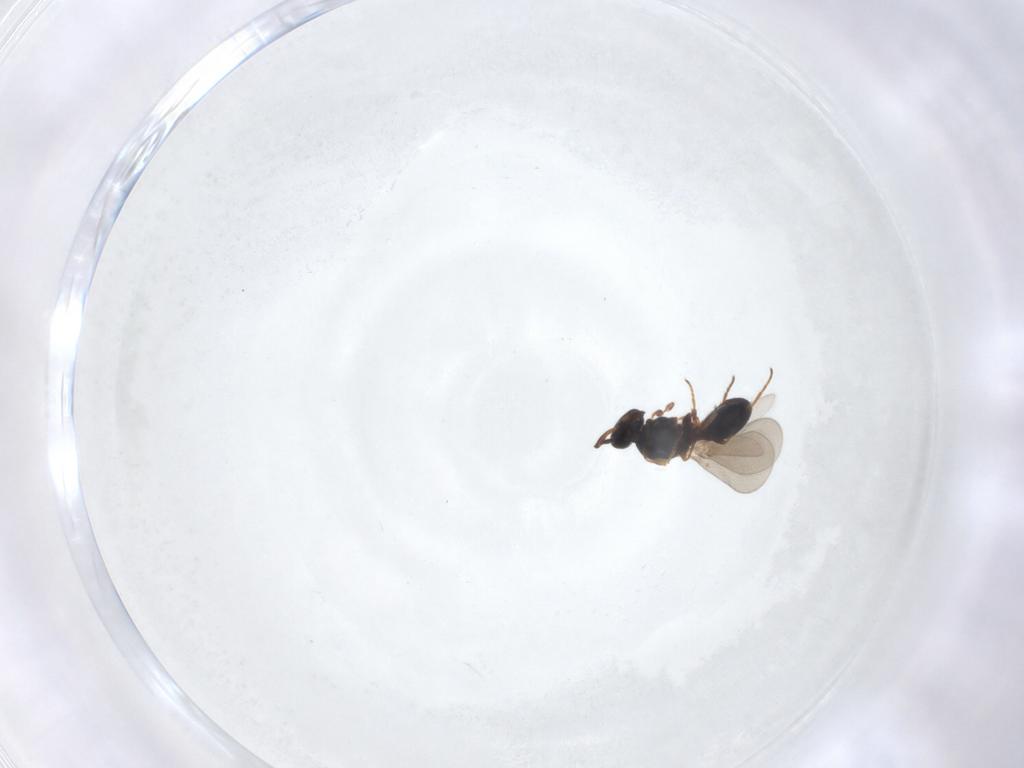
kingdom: Animalia
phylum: Arthropoda
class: Insecta
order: Hymenoptera
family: Platygastridae
